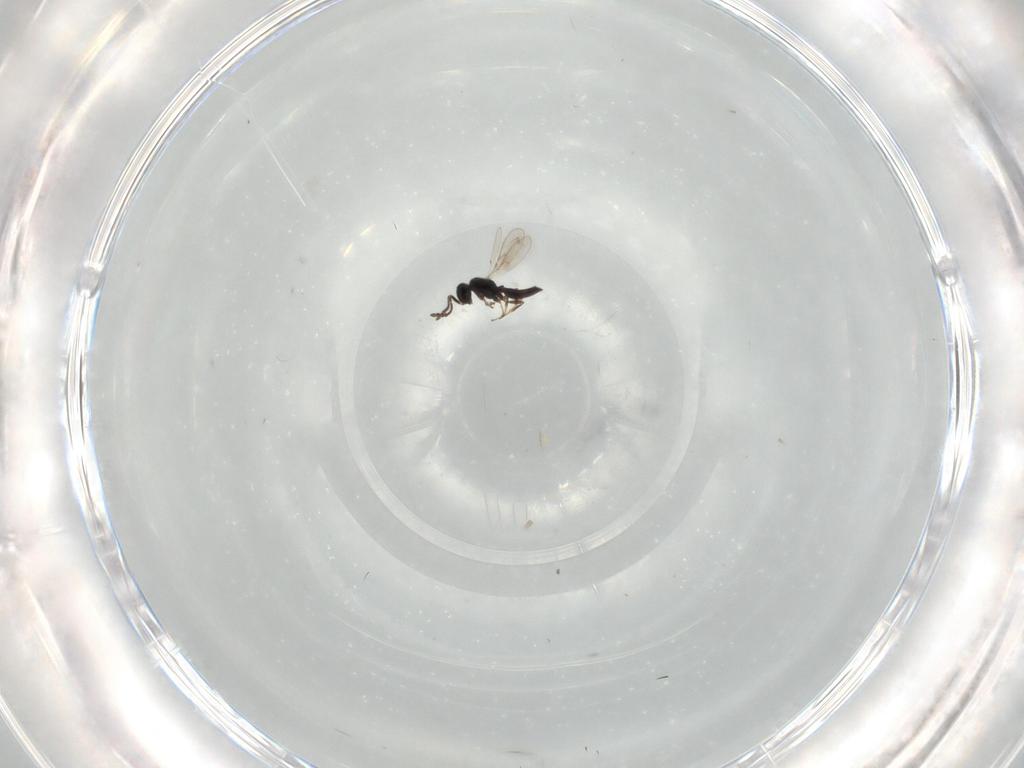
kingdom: Animalia
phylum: Arthropoda
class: Insecta
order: Hymenoptera
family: Scelionidae
